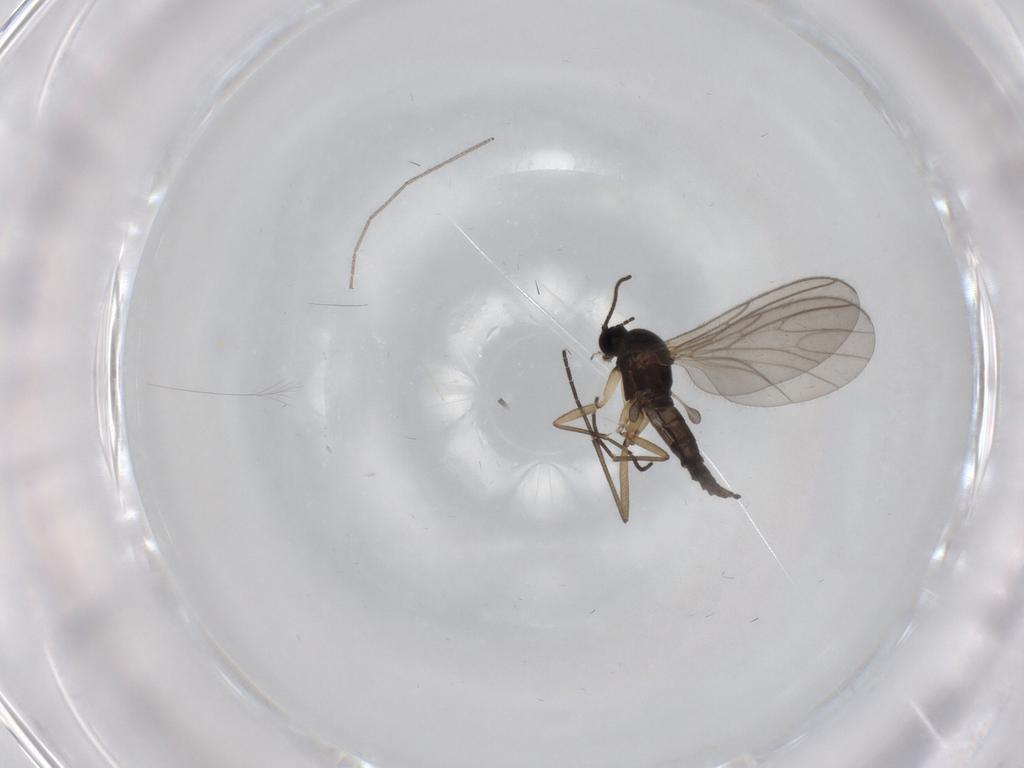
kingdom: Animalia
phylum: Arthropoda
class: Insecta
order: Diptera
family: Sciaridae
